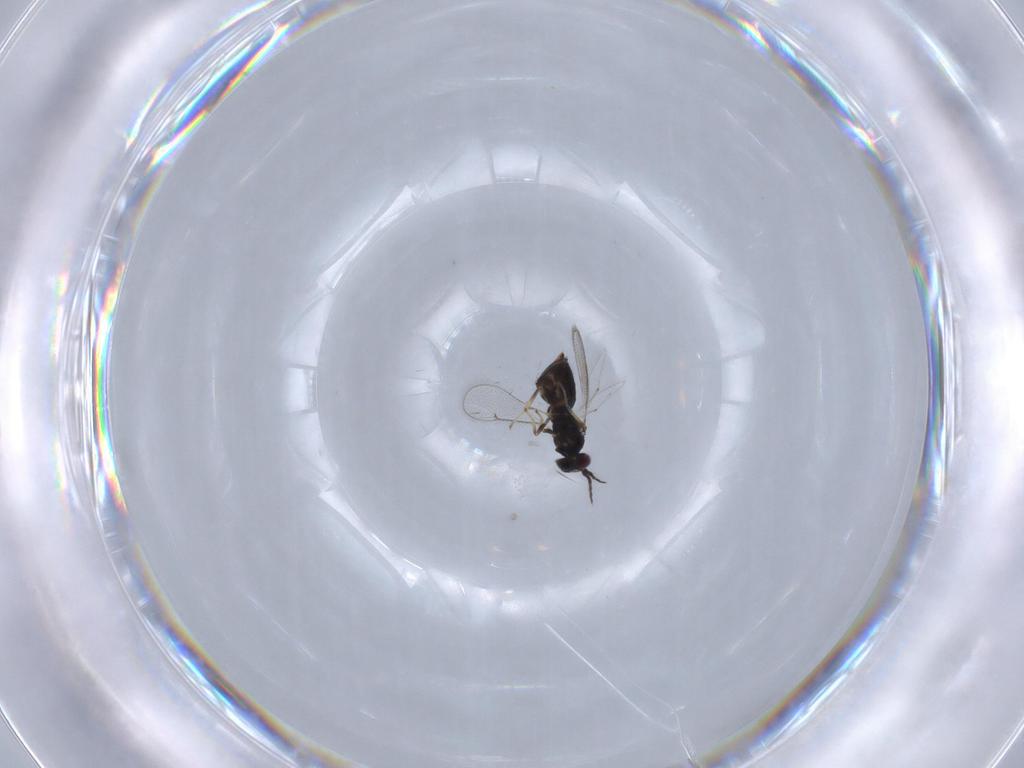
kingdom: Animalia
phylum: Arthropoda
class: Insecta
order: Hymenoptera
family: Eulophidae
